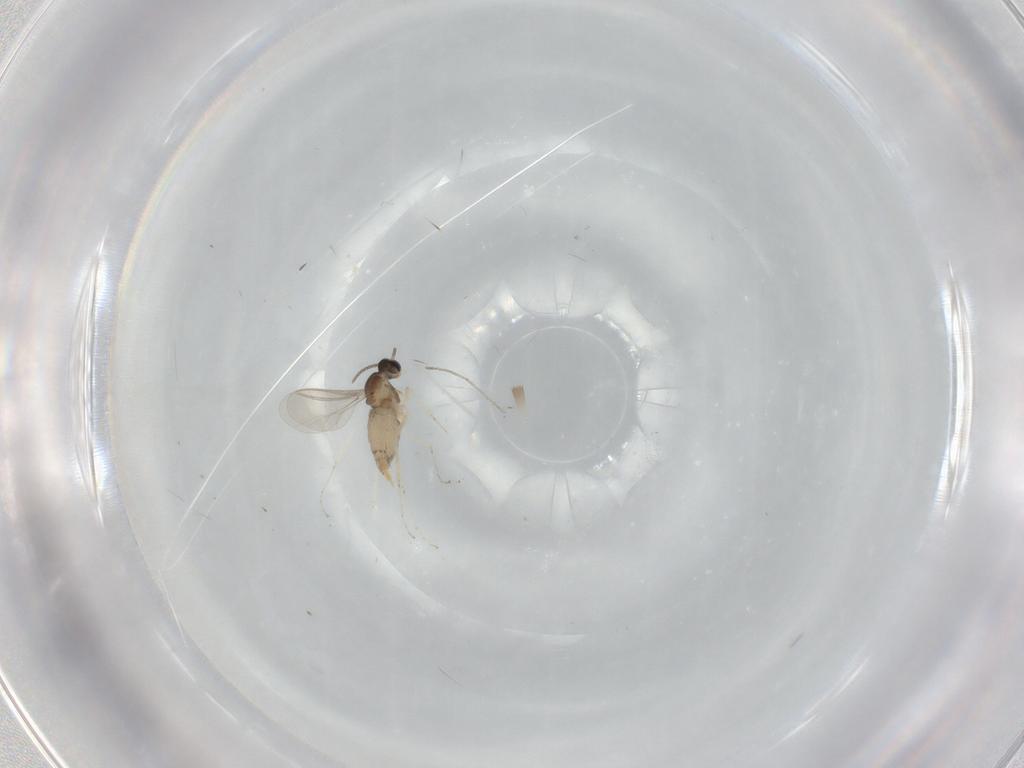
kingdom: Animalia
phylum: Arthropoda
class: Insecta
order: Diptera
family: Cecidomyiidae
